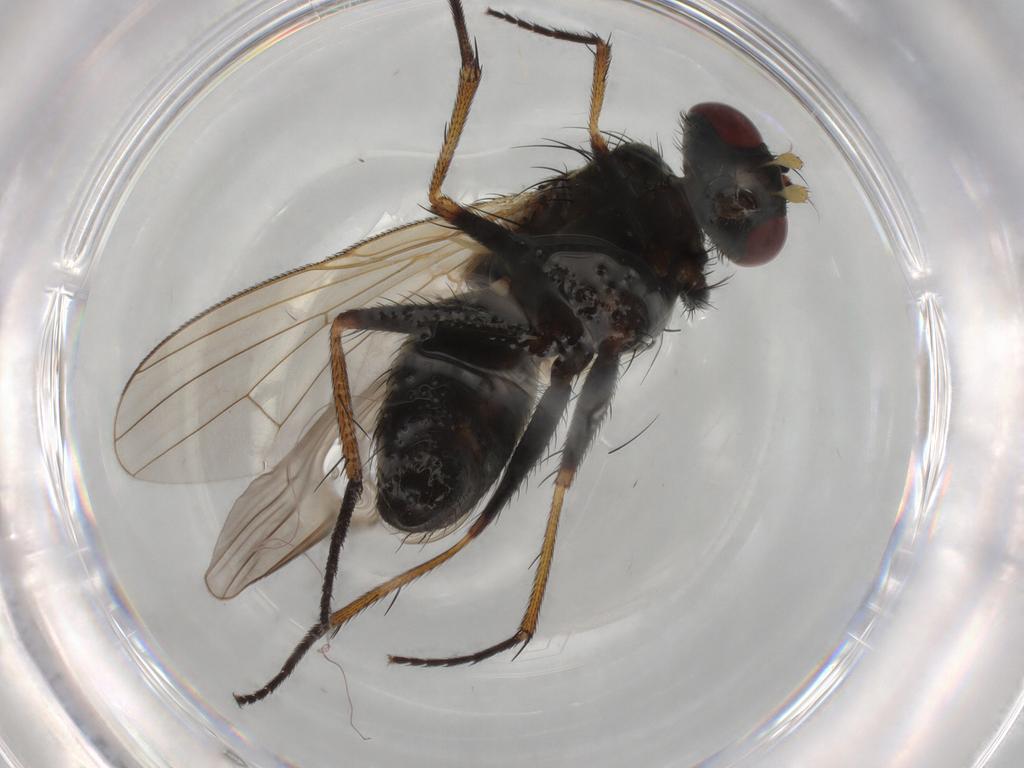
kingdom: Animalia
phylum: Arthropoda
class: Insecta
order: Diptera
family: Muscidae
